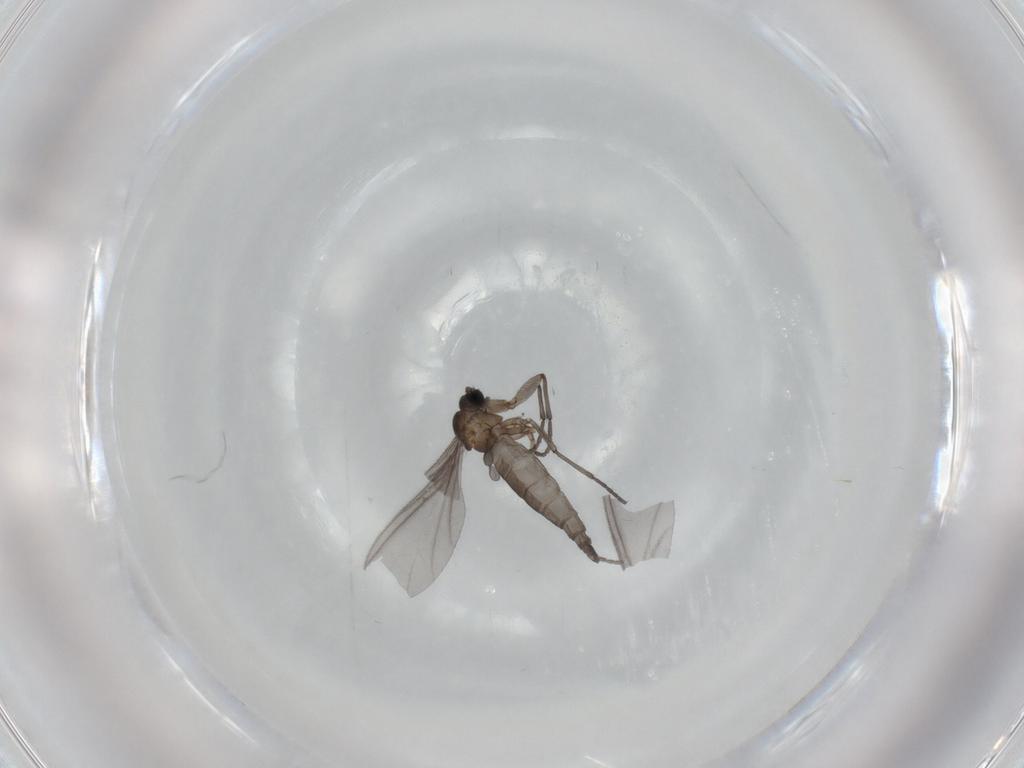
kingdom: Animalia
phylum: Arthropoda
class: Insecta
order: Diptera
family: Sciaridae
